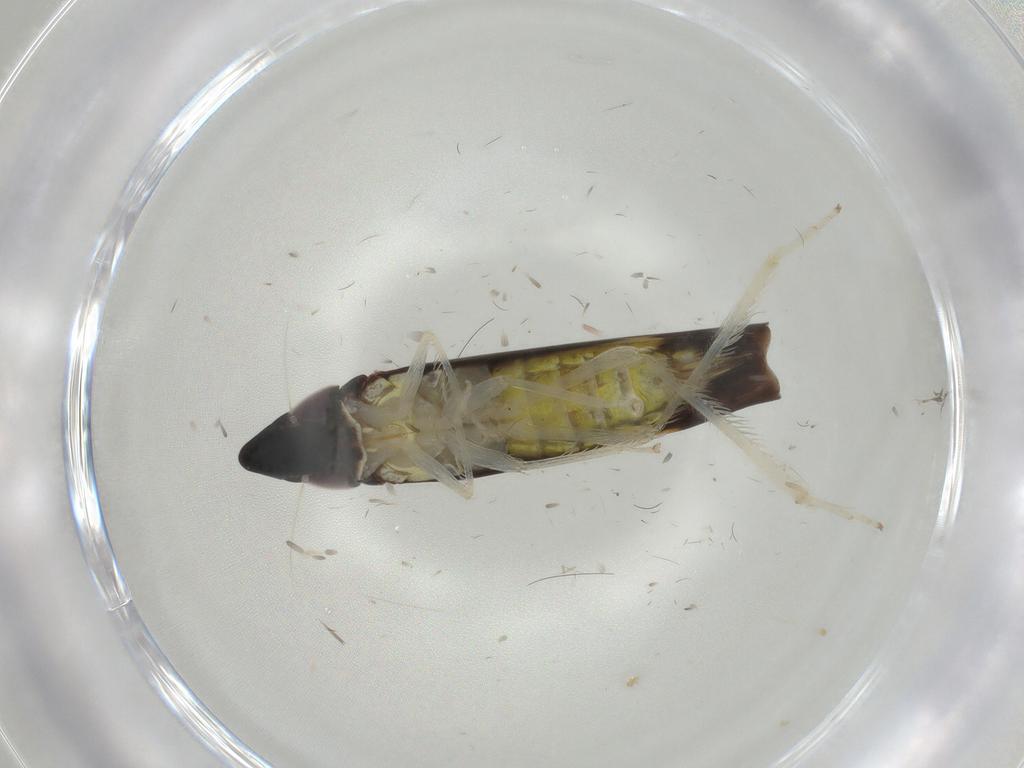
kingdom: Animalia
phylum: Arthropoda
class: Insecta
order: Hemiptera
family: Cicadellidae
